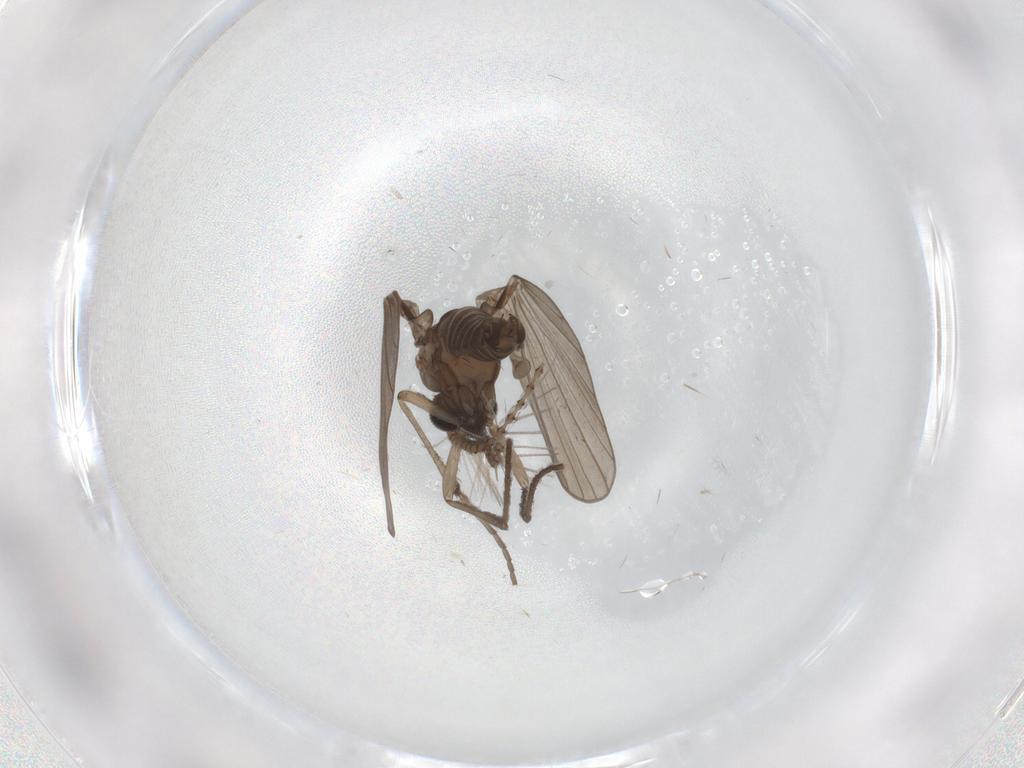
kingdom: Animalia
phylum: Arthropoda
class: Insecta
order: Diptera
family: Psychodidae
